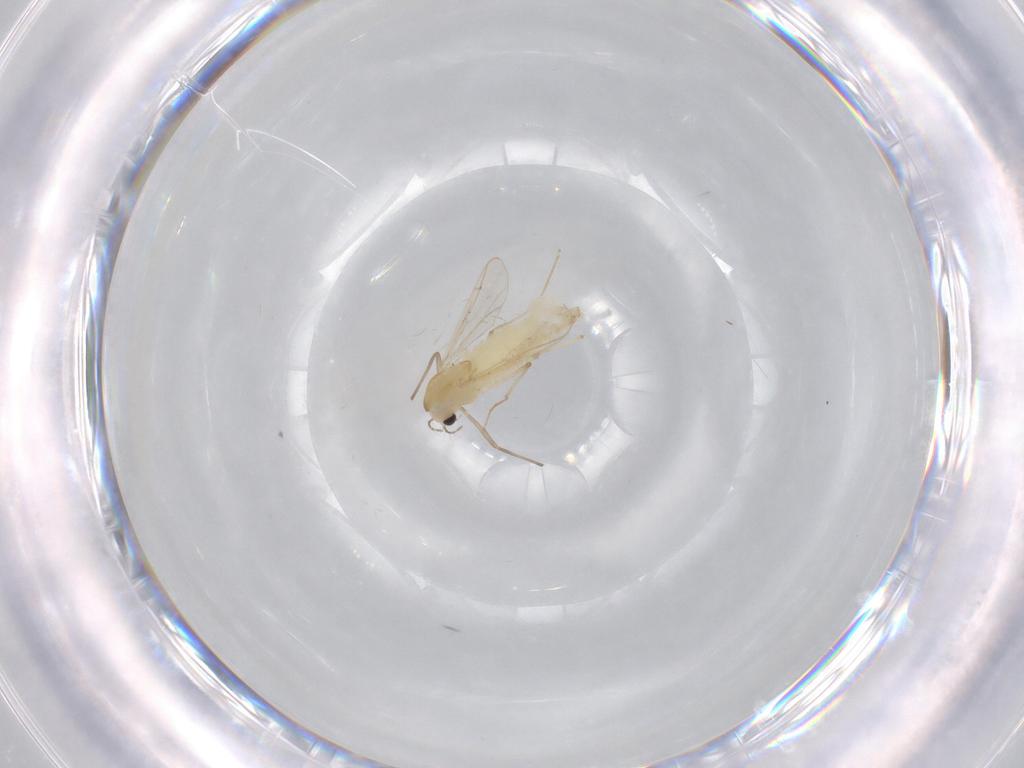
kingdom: Animalia
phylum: Arthropoda
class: Insecta
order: Diptera
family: Chironomidae
